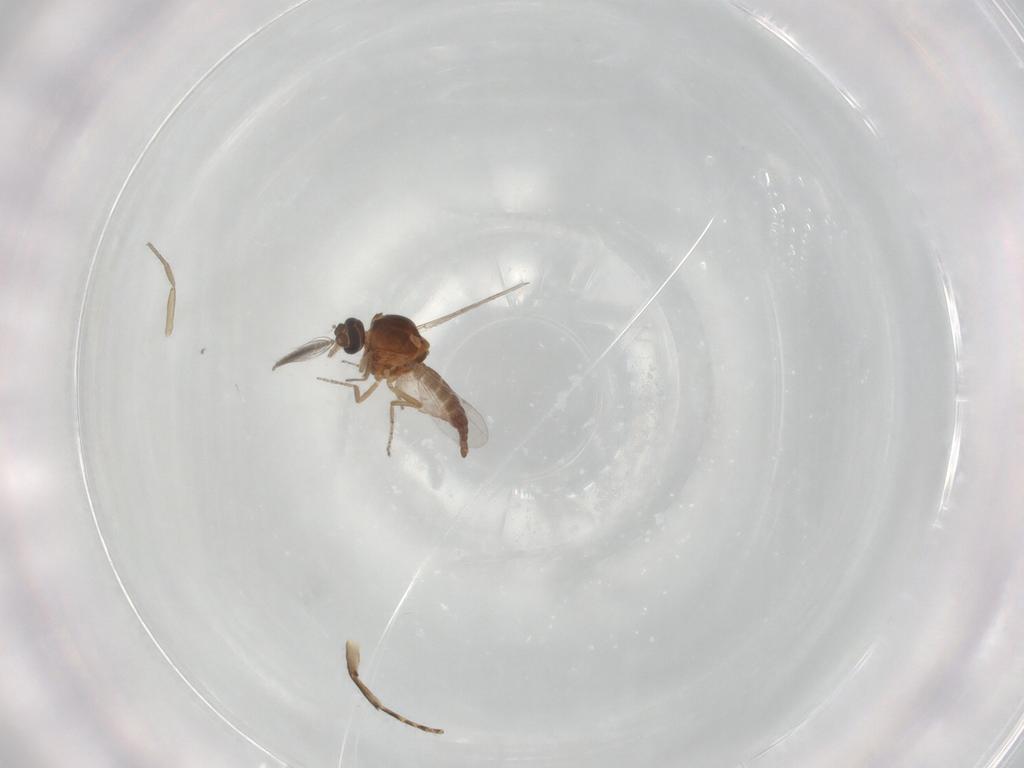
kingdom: Animalia
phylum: Arthropoda
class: Insecta
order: Diptera
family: Ceratopogonidae
